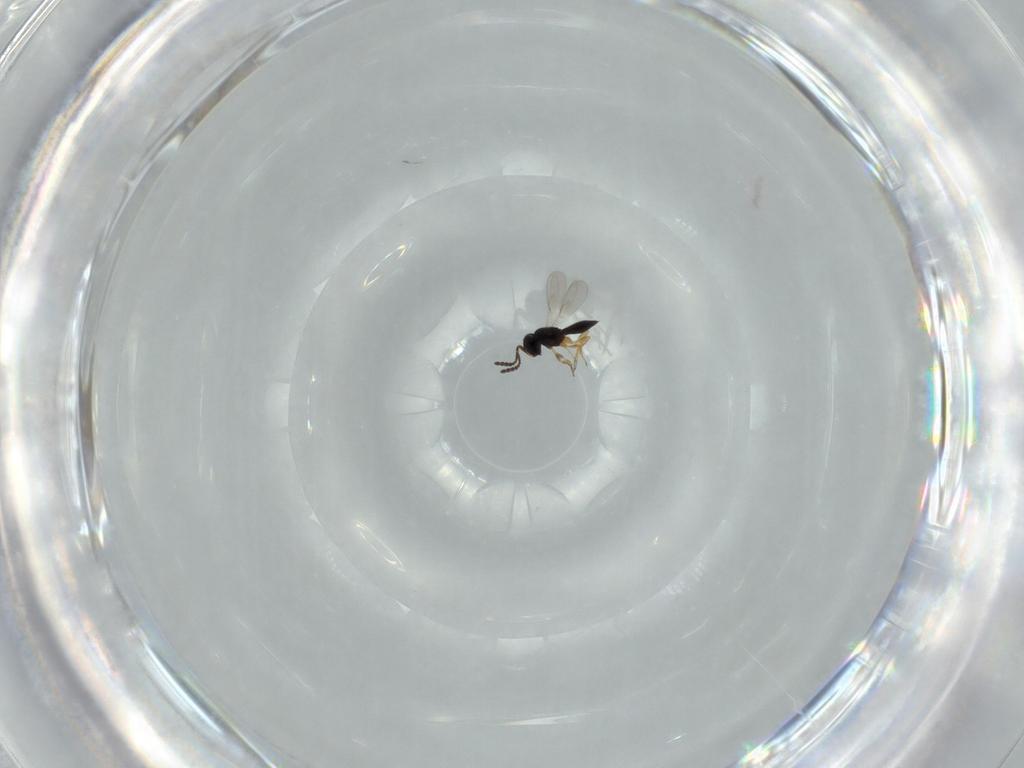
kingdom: Animalia
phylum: Arthropoda
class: Insecta
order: Hymenoptera
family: Scelionidae
